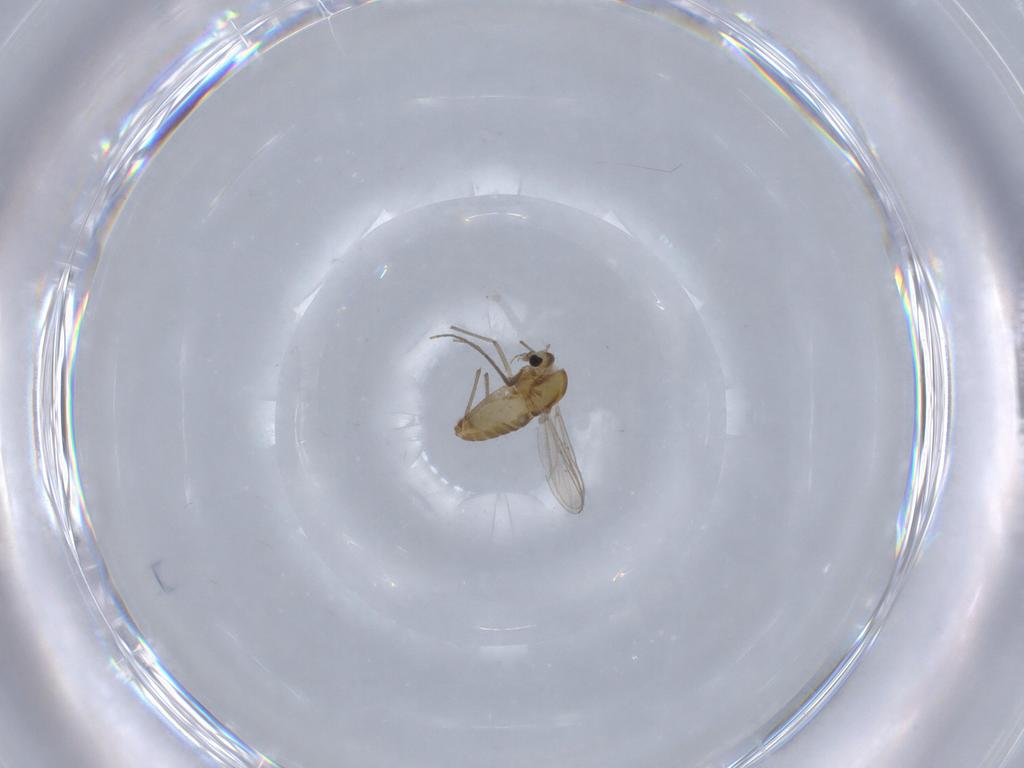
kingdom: Animalia
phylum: Arthropoda
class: Insecta
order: Diptera
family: Chironomidae
